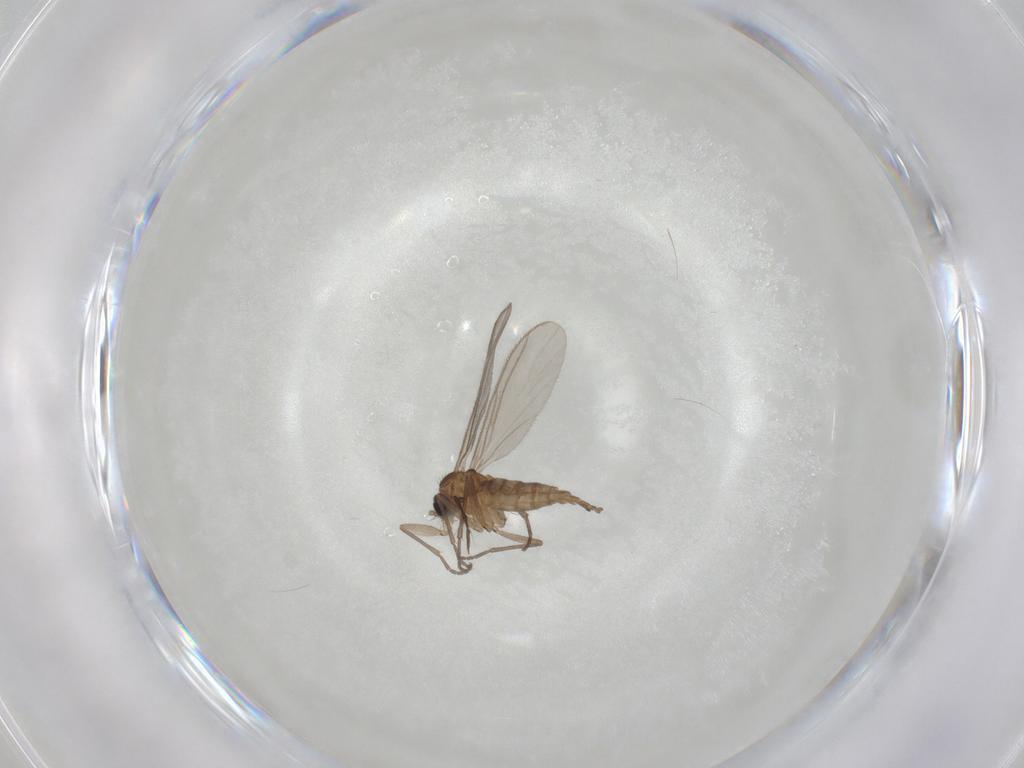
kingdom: Animalia
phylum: Arthropoda
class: Insecta
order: Diptera
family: Sciaridae
